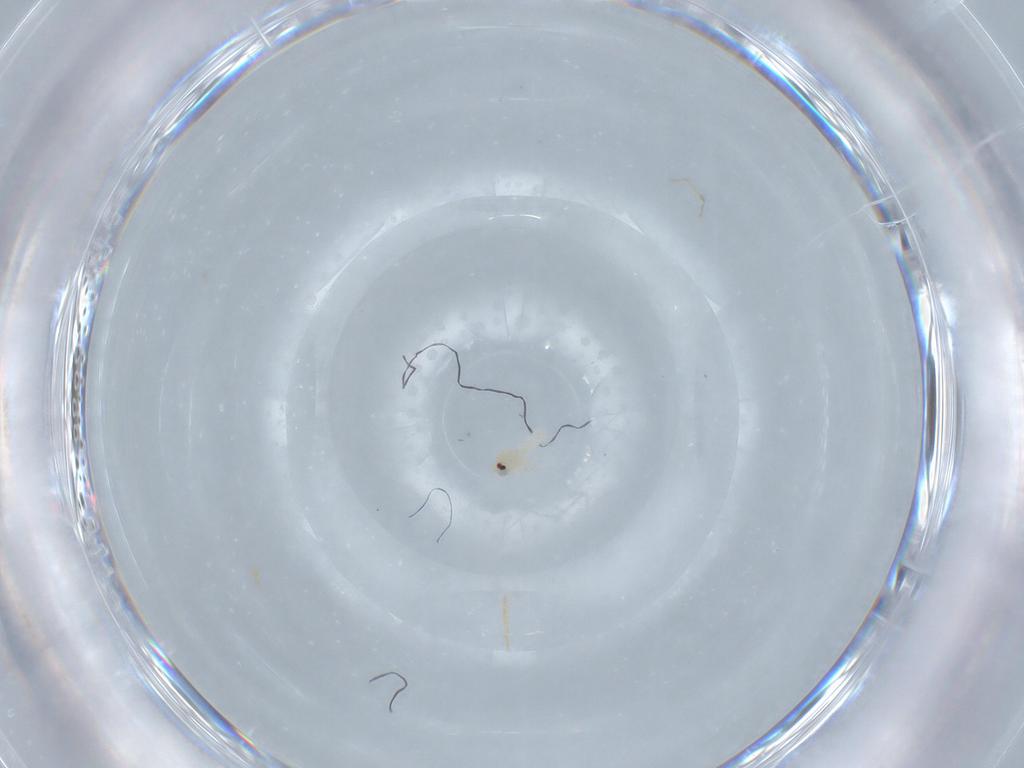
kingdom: Animalia
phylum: Arthropoda
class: Insecta
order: Hemiptera
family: Aleyrodidae
